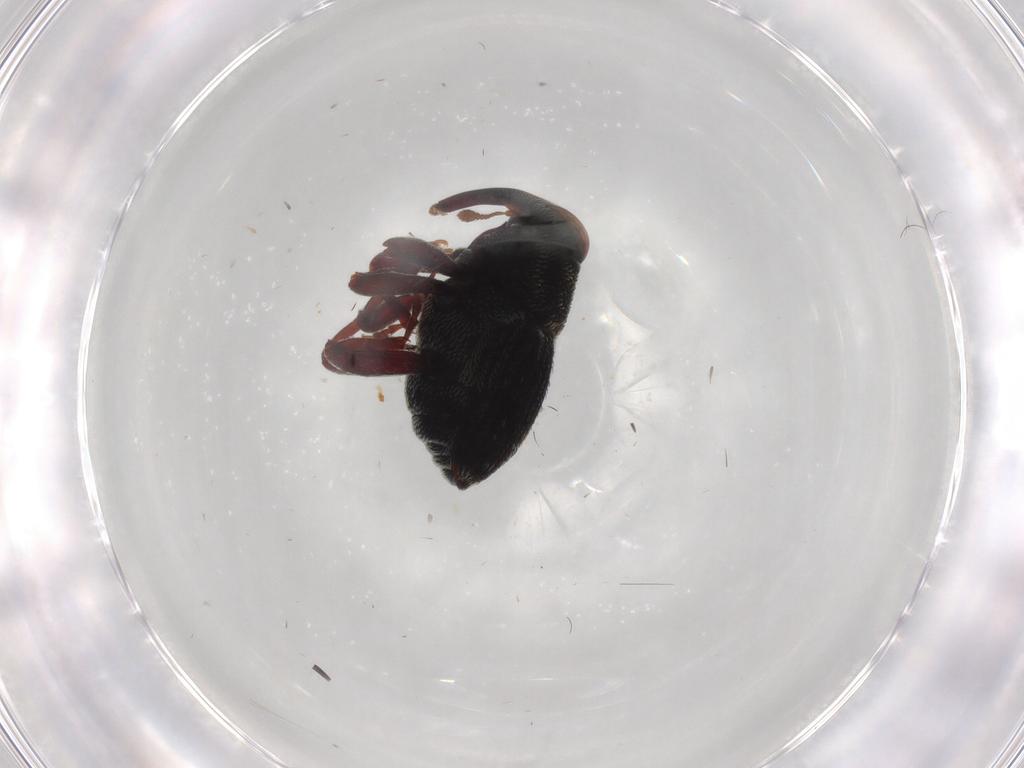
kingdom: Animalia
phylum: Arthropoda
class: Insecta
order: Coleoptera
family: Curculionidae
